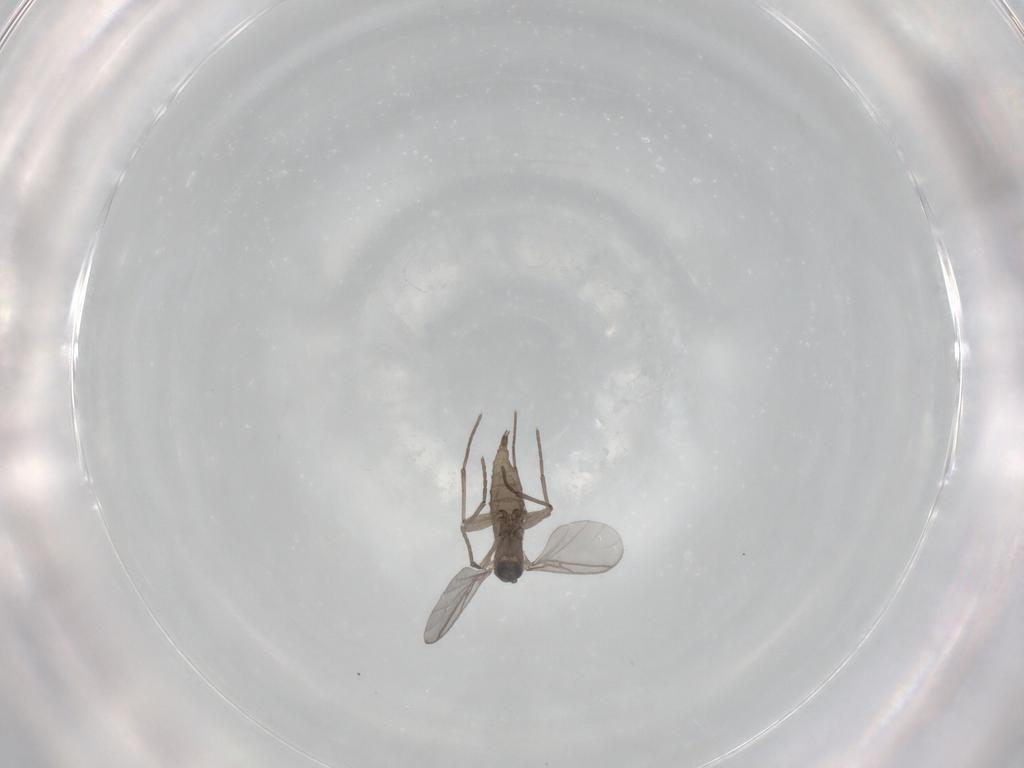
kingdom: Animalia
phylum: Arthropoda
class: Insecta
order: Diptera
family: Sciaridae
